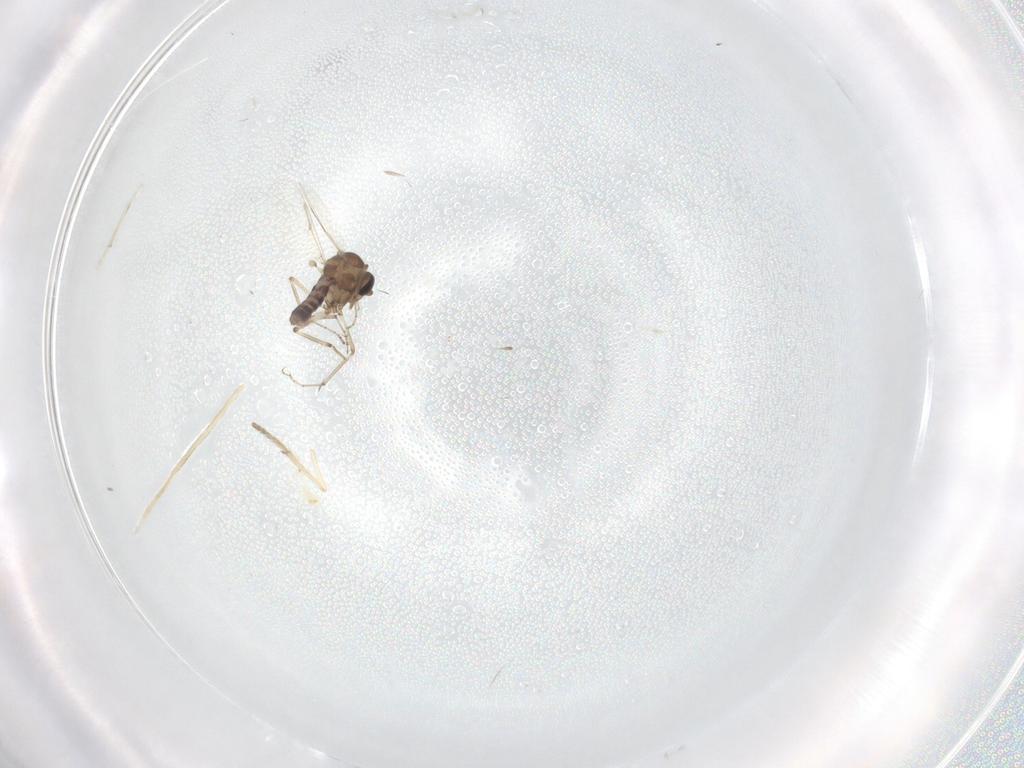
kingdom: Animalia
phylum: Arthropoda
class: Insecta
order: Diptera
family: Psychodidae
